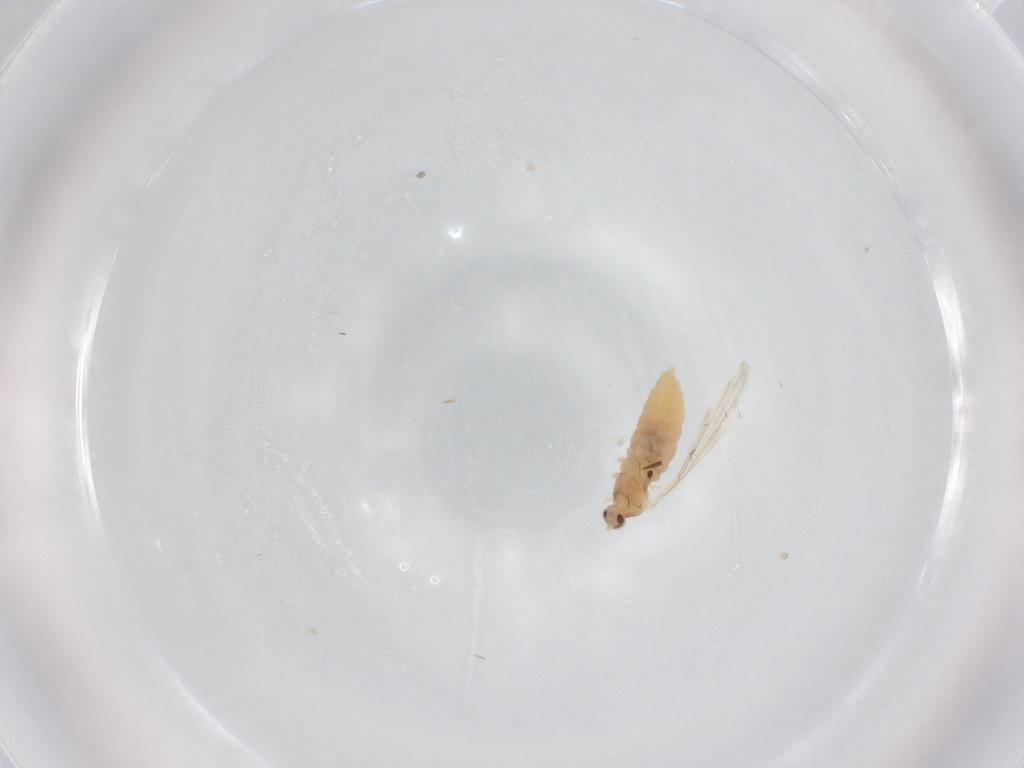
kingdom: Animalia
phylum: Arthropoda
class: Insecta
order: Diptera
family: Cecidomyiidae
